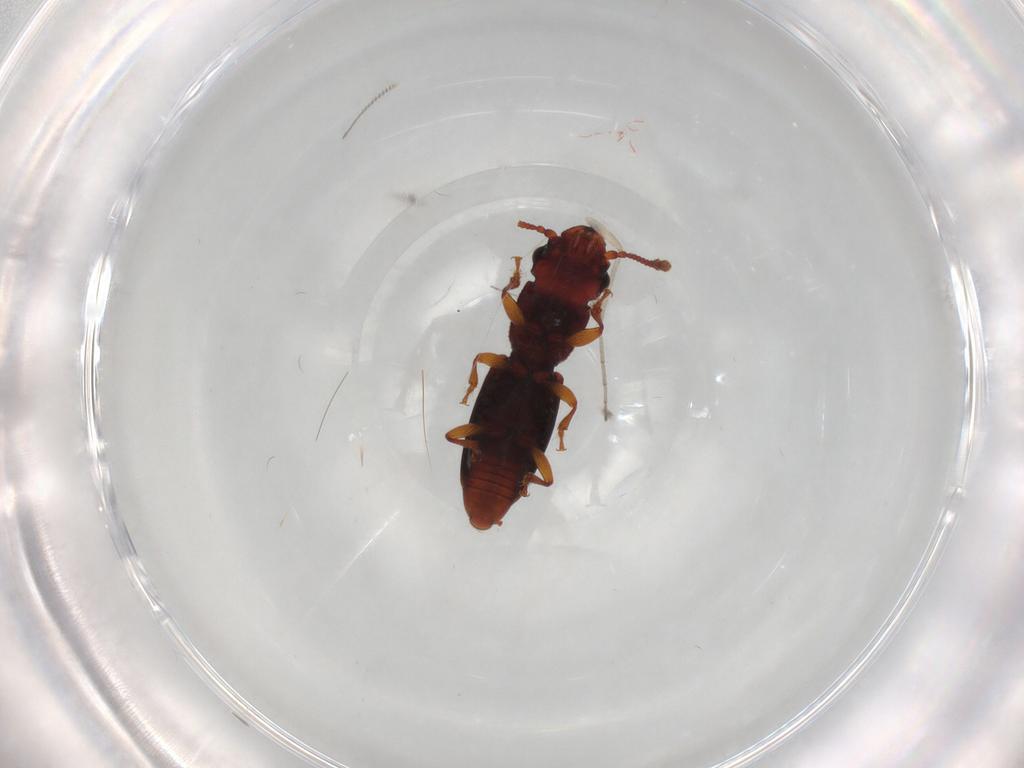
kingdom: Animalia
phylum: Arthropoda
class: Insecta
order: Coleoptera
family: Monotomidae
